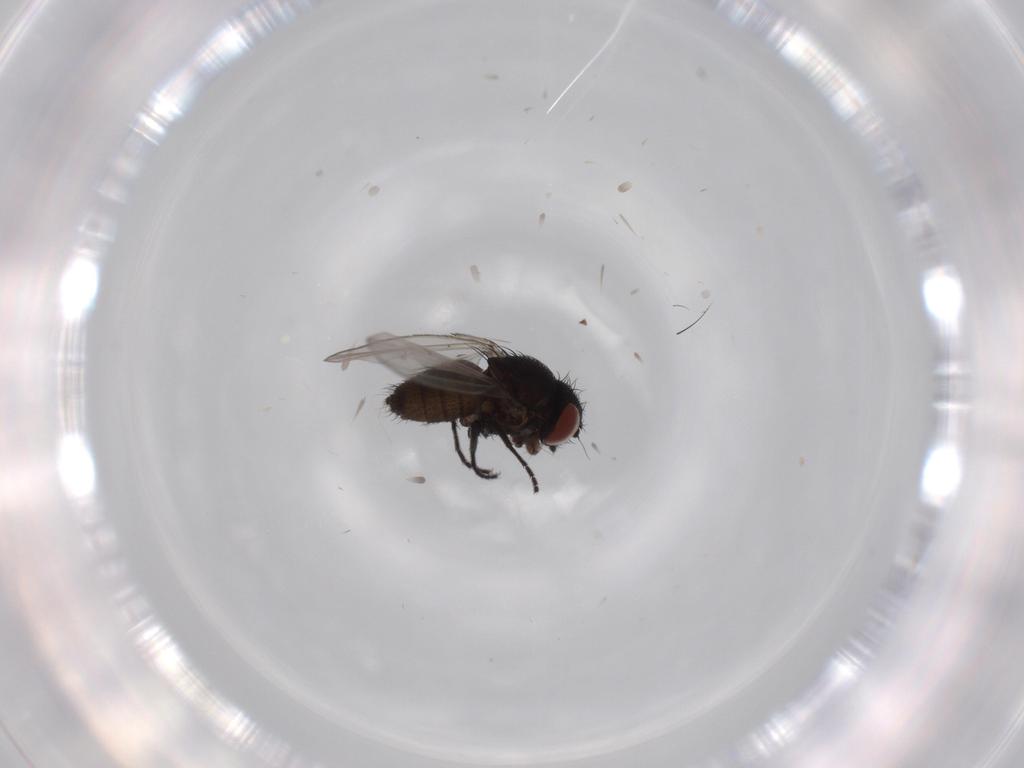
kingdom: Animalia
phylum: Arthropoda
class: Insecta
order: Diptera
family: Milichiidae
